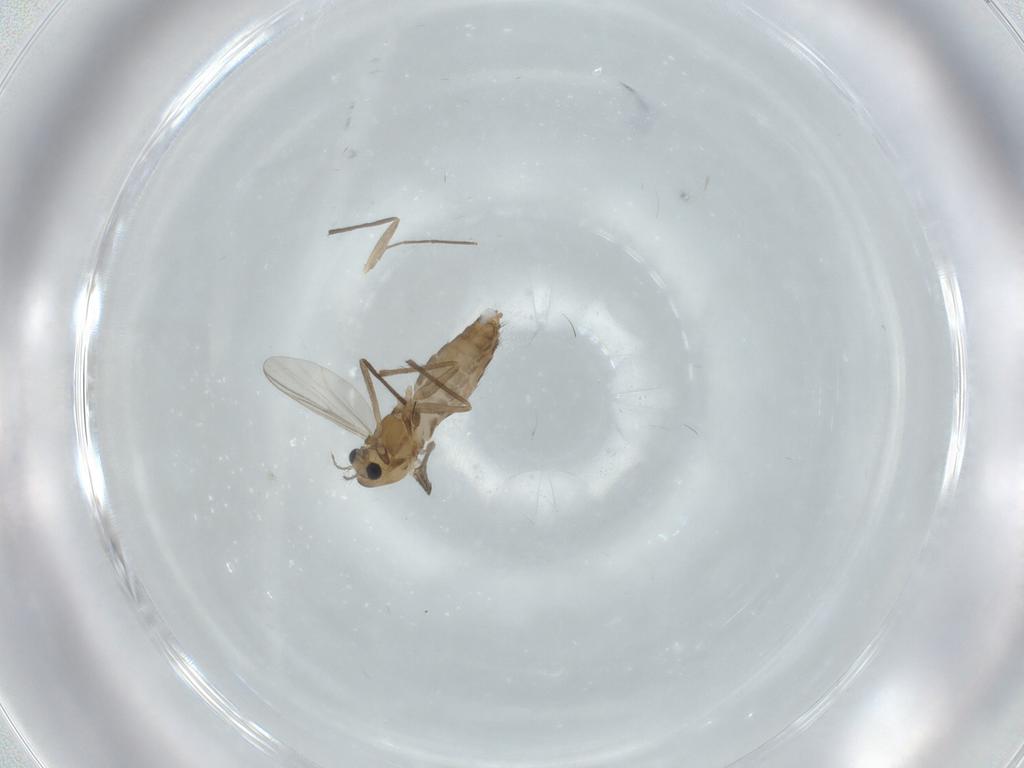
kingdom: Animalia
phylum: Arthropoda
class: Insecta
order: Diptera
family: Chironomidae
